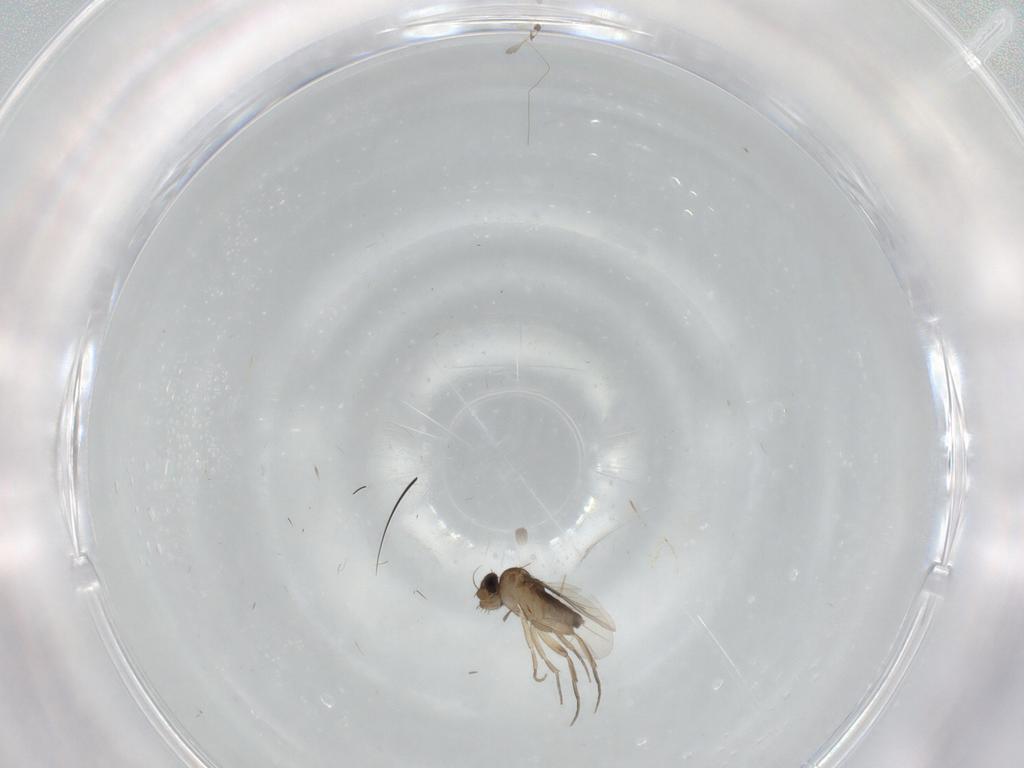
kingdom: Animalia
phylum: Arthropoda
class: Insecta
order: Diptera
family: Phoridae
